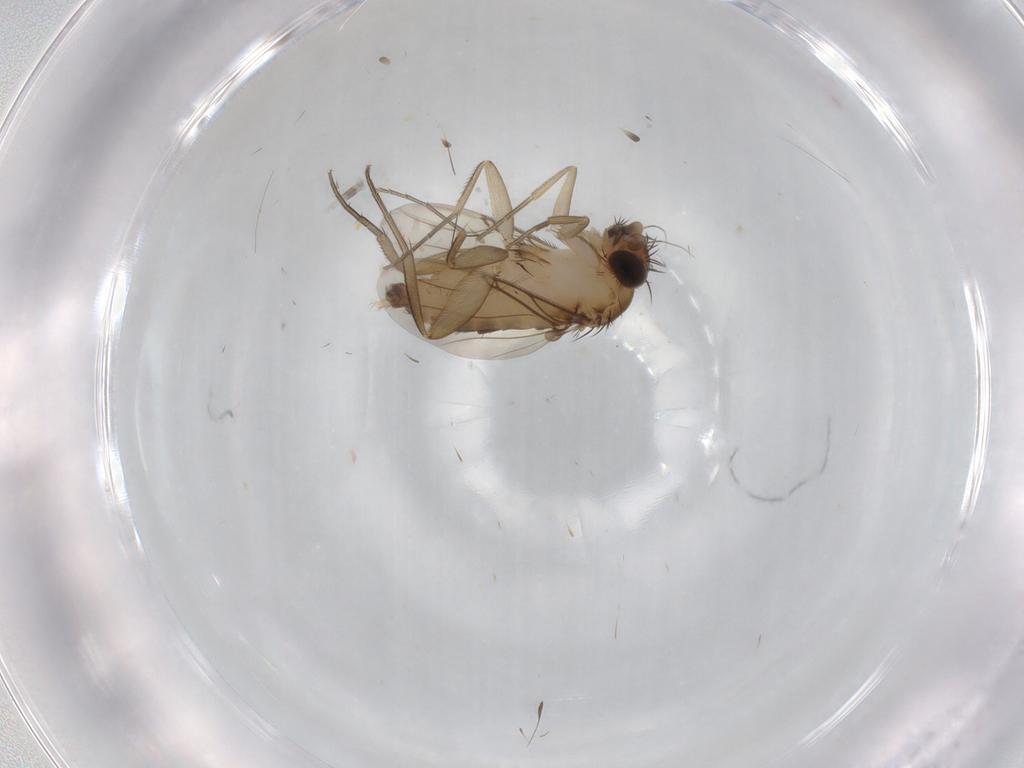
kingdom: Animalia
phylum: Arthropoda
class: Insecta
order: Diptera
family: Phoridae
